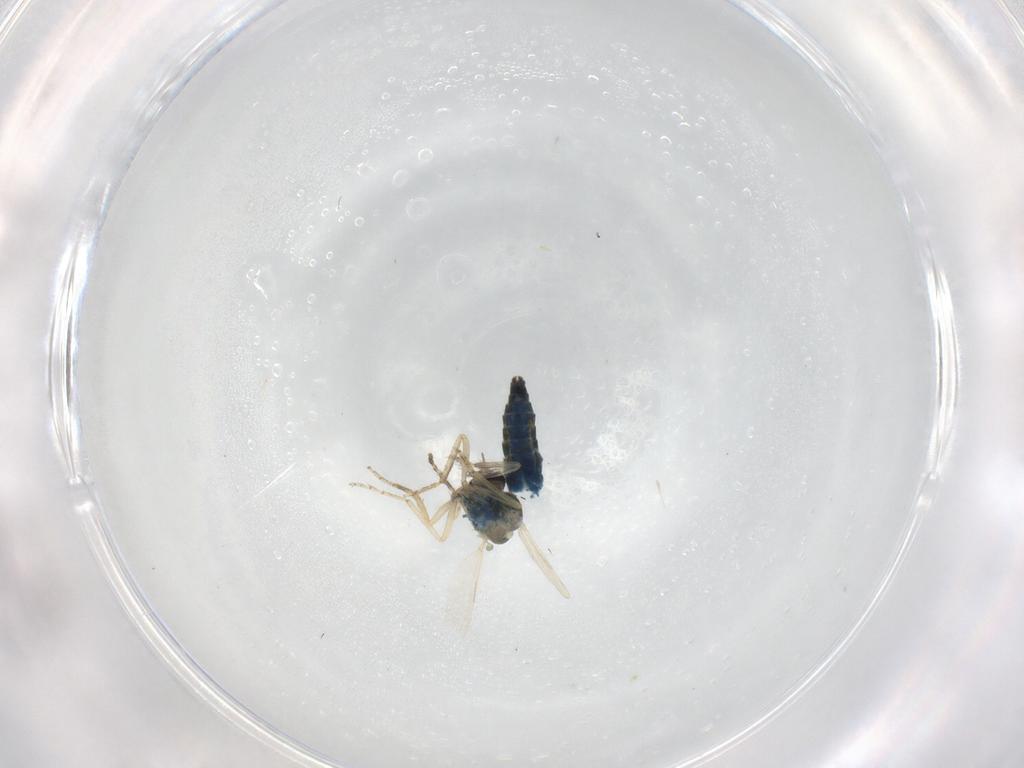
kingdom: Animalia
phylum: Arthropoda
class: Insecta
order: Diptera
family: Ceratopogonidae
